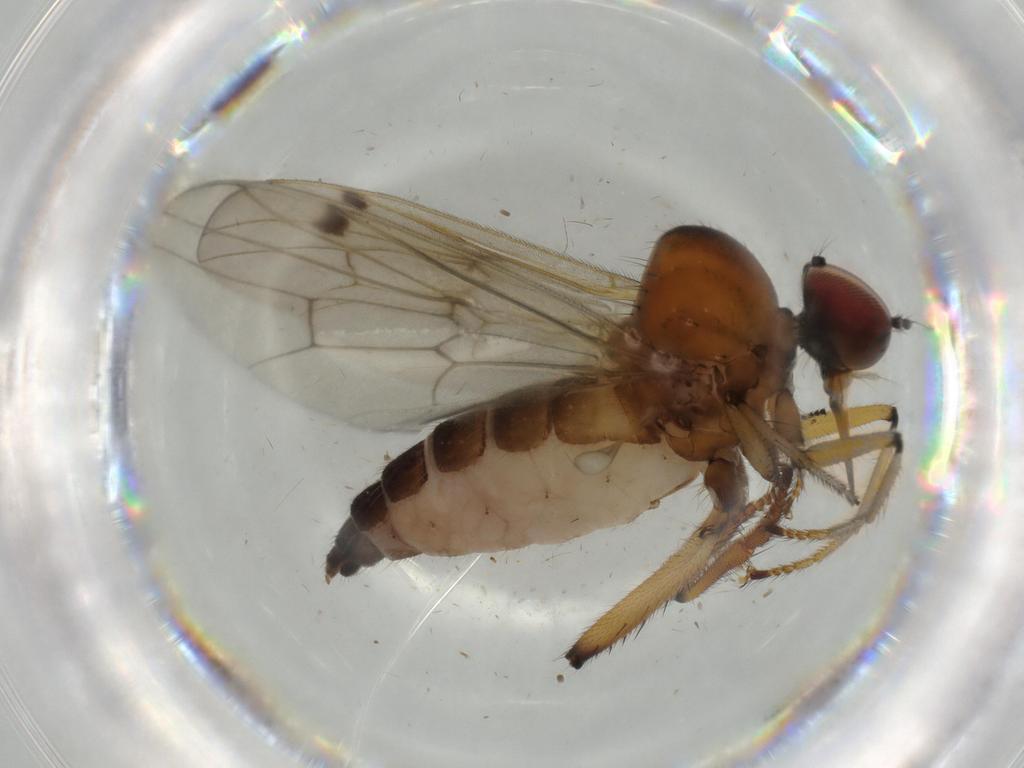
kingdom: Animalia
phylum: Arthropoda
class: Insecta
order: Diptera
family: Hybotidae
